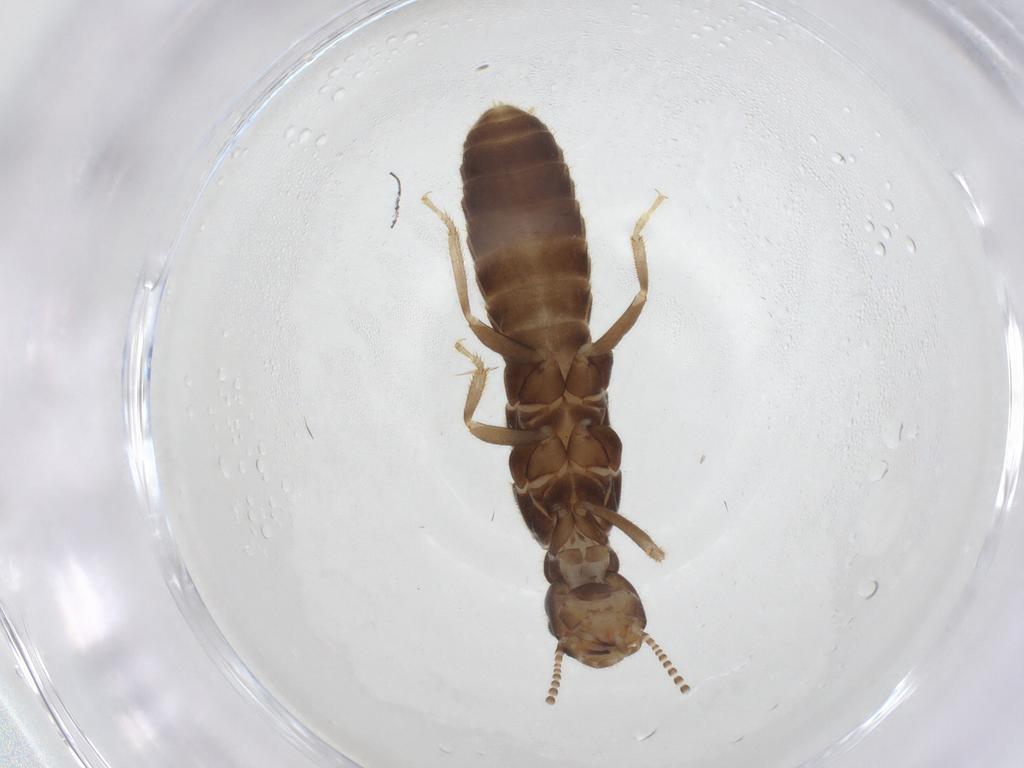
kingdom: Animalia
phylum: Arthropoda
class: Insecta
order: Blattodea
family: Rhinotermitidae
